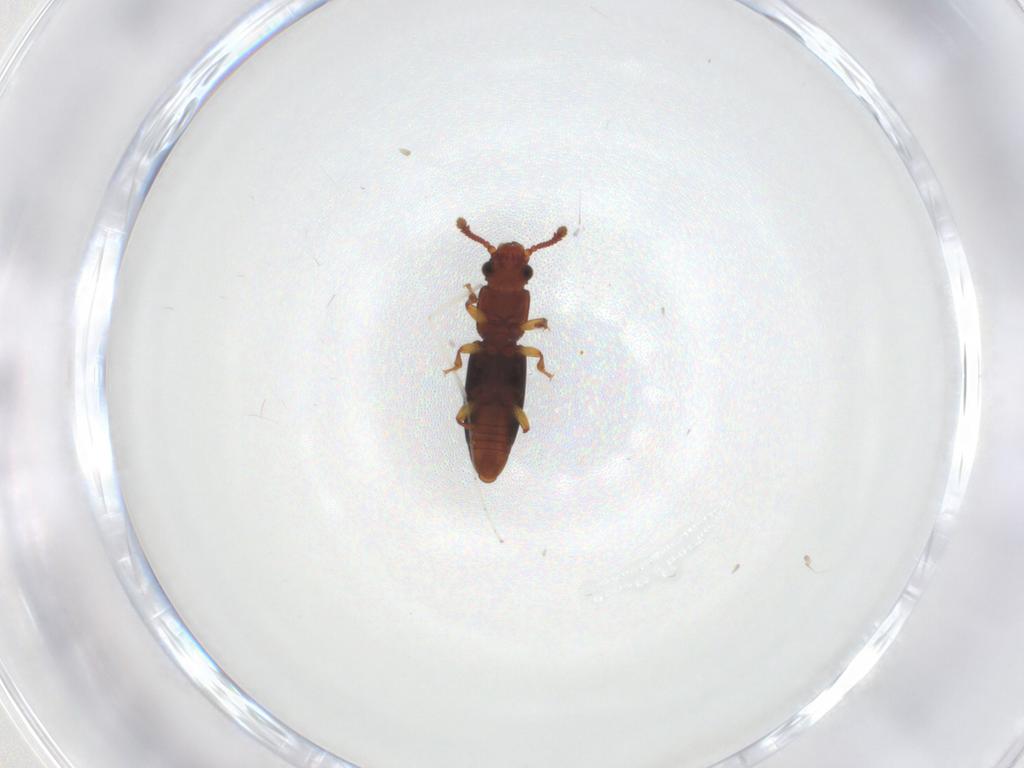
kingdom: Animalia
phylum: Arthropoda
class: Insecta
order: Coleoptera
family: Monotomidae
